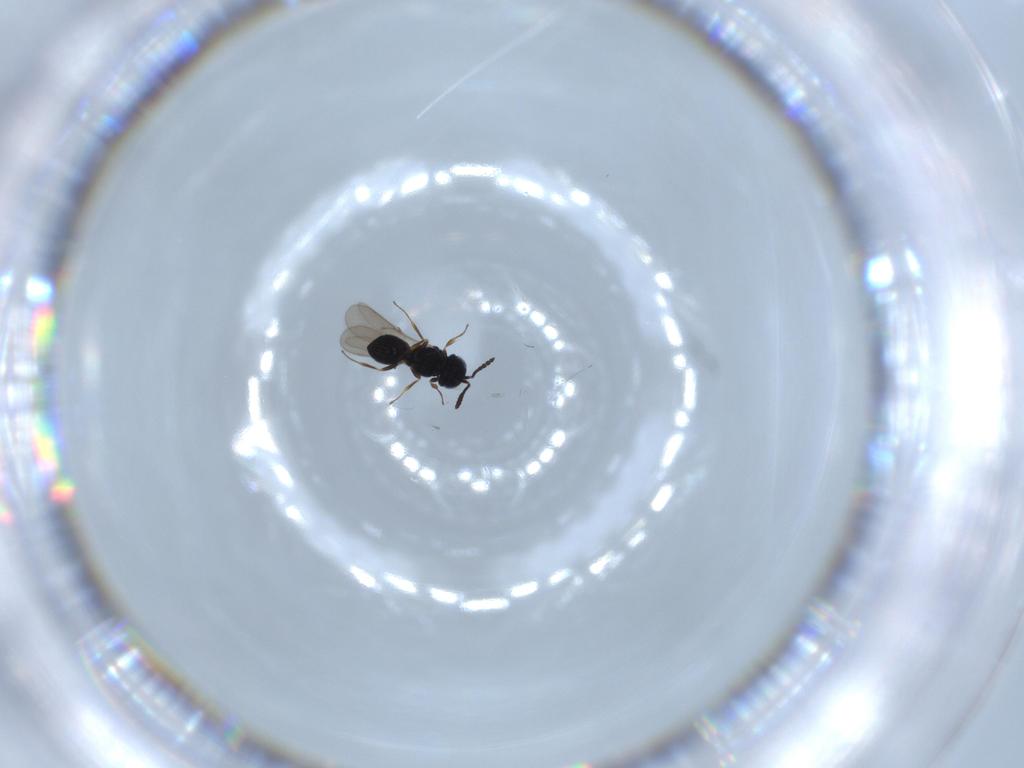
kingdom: Animalia
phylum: Arthropoda
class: Insecta
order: Hymenoptera
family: Scelionidae
